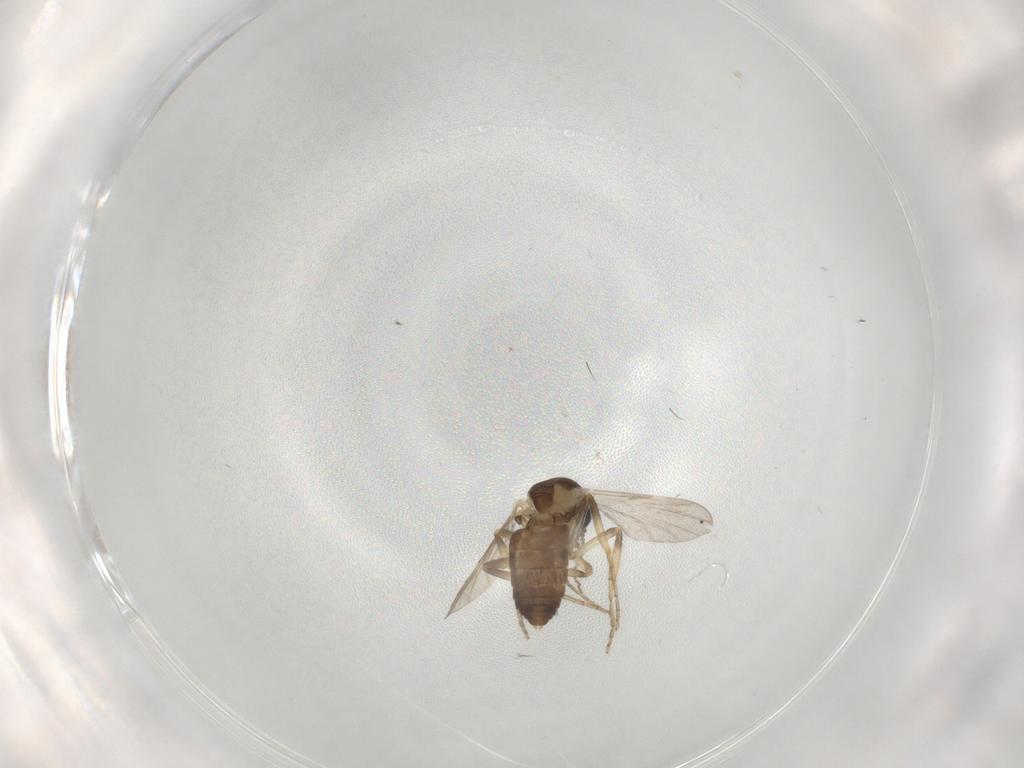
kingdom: Animalia
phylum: Arthropoda
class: Insecta
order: Diptera
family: Ceratopogonidae
